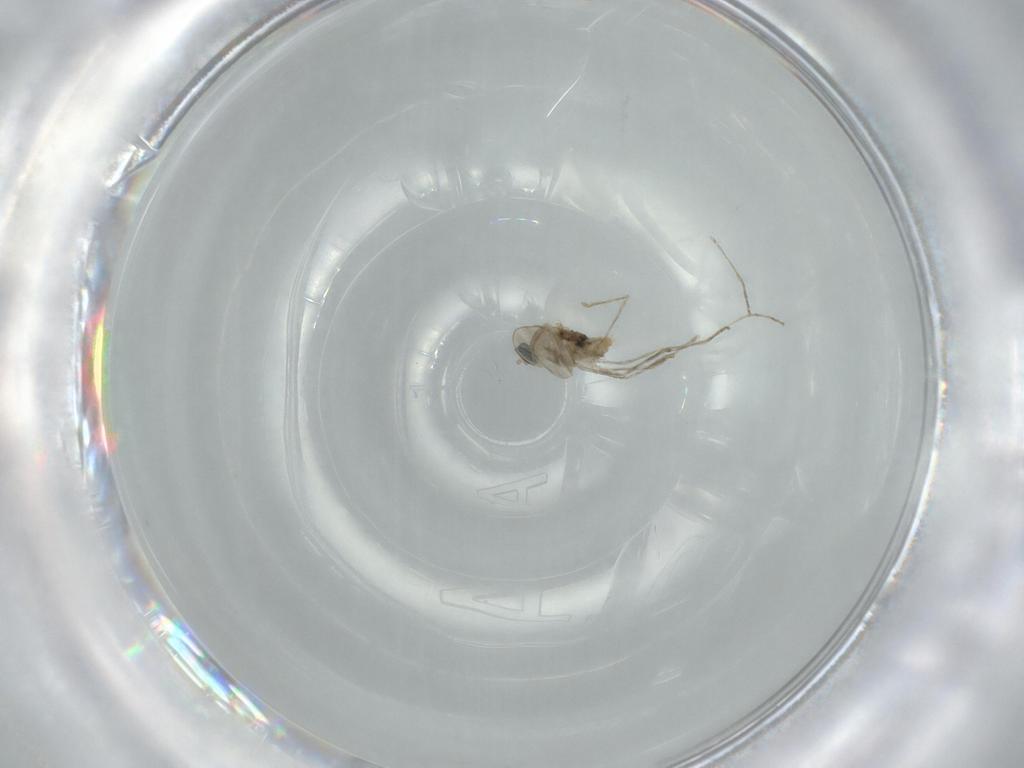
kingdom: Animalia
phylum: Arthropoda
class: Insecta
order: Diptera
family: Cecidomyiidae
